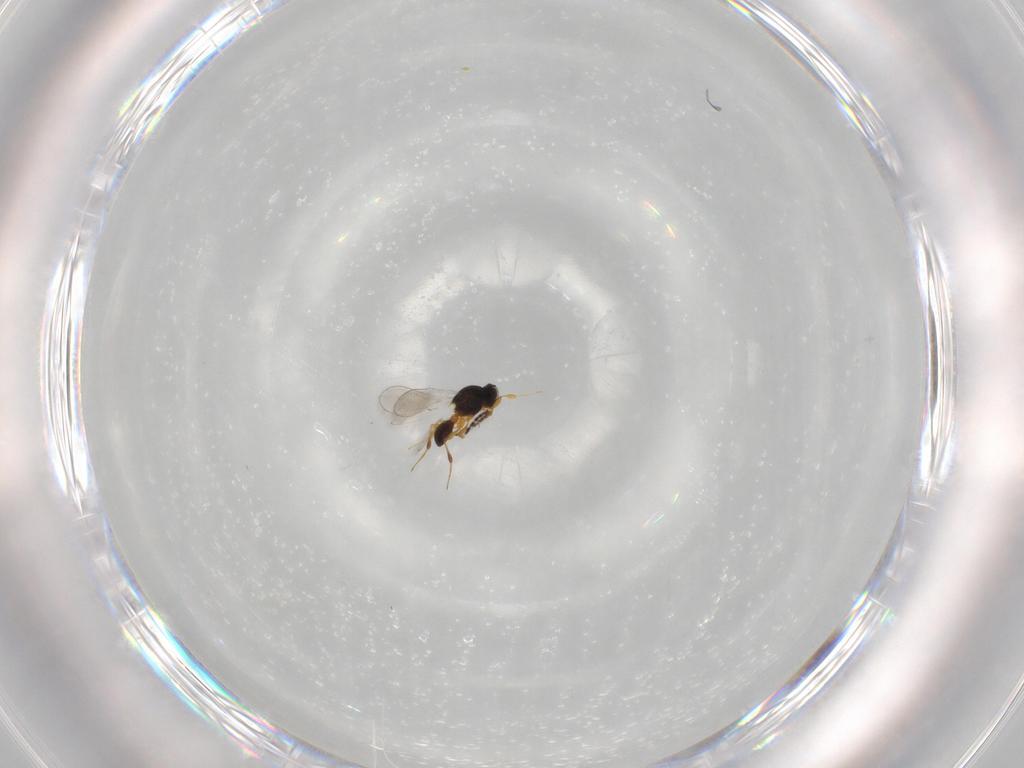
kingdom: Animalia
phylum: Arthropoda
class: Insecta
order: Hymenoptera
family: Platygastridae
